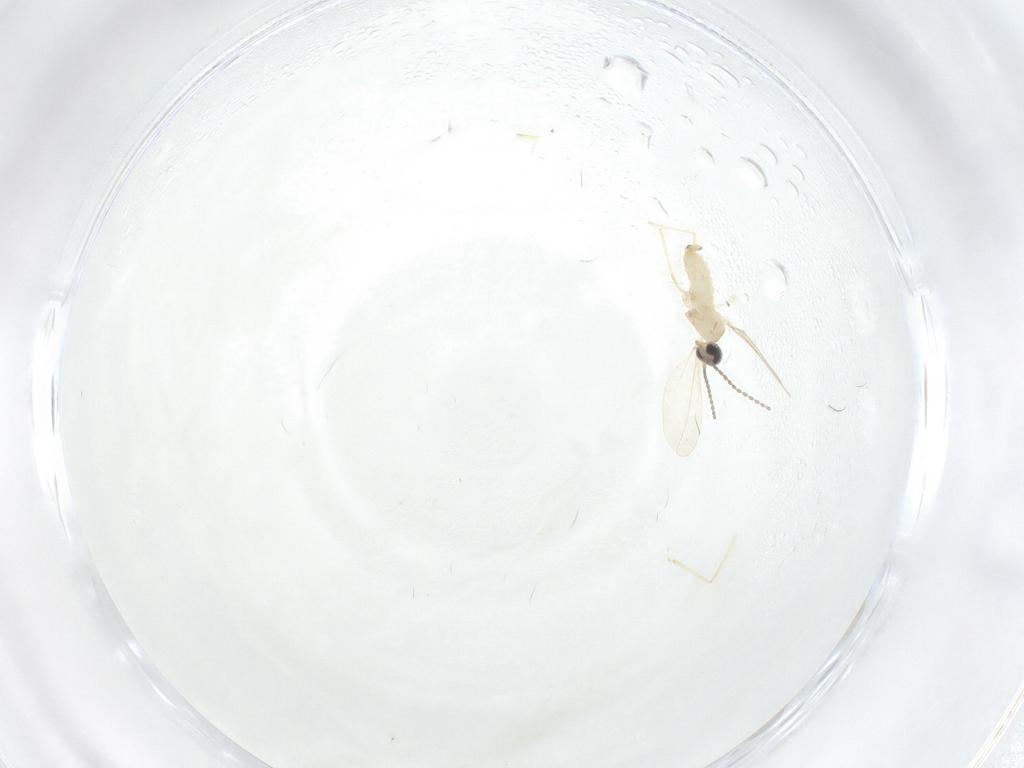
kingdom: Animalia
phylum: Arthropoda
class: Insecta
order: Diptera
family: Cecidomyiidae
